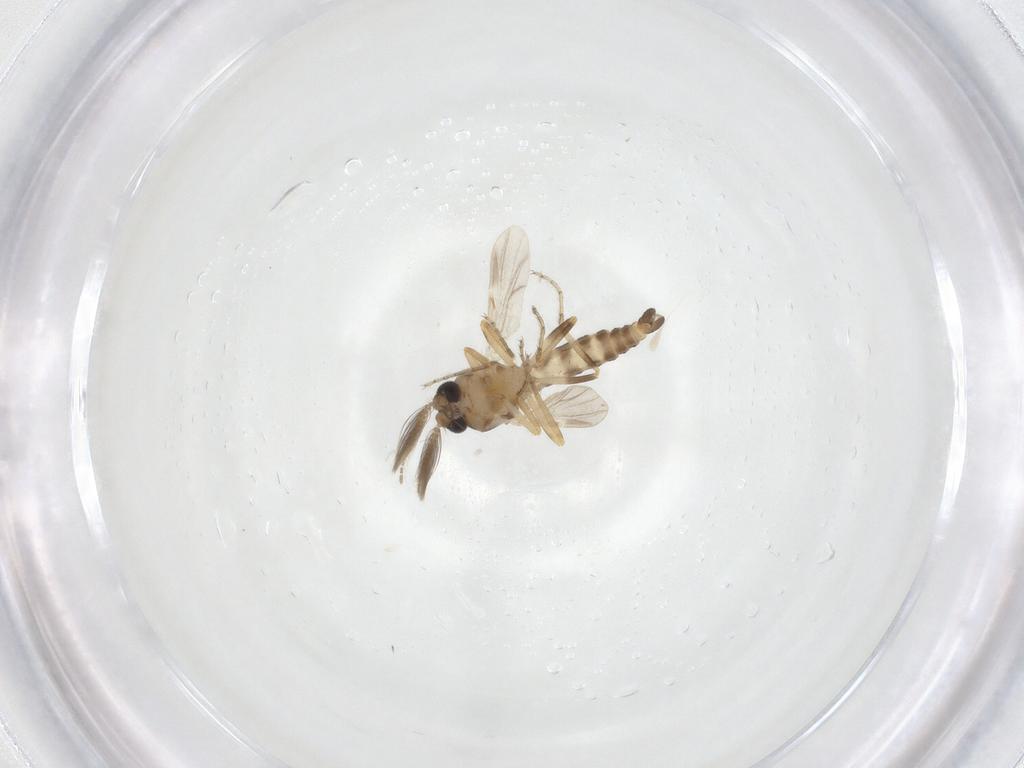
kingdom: Animalia
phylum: Arthropoda
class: Insecta
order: Diptera
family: Ceratopogonidae
